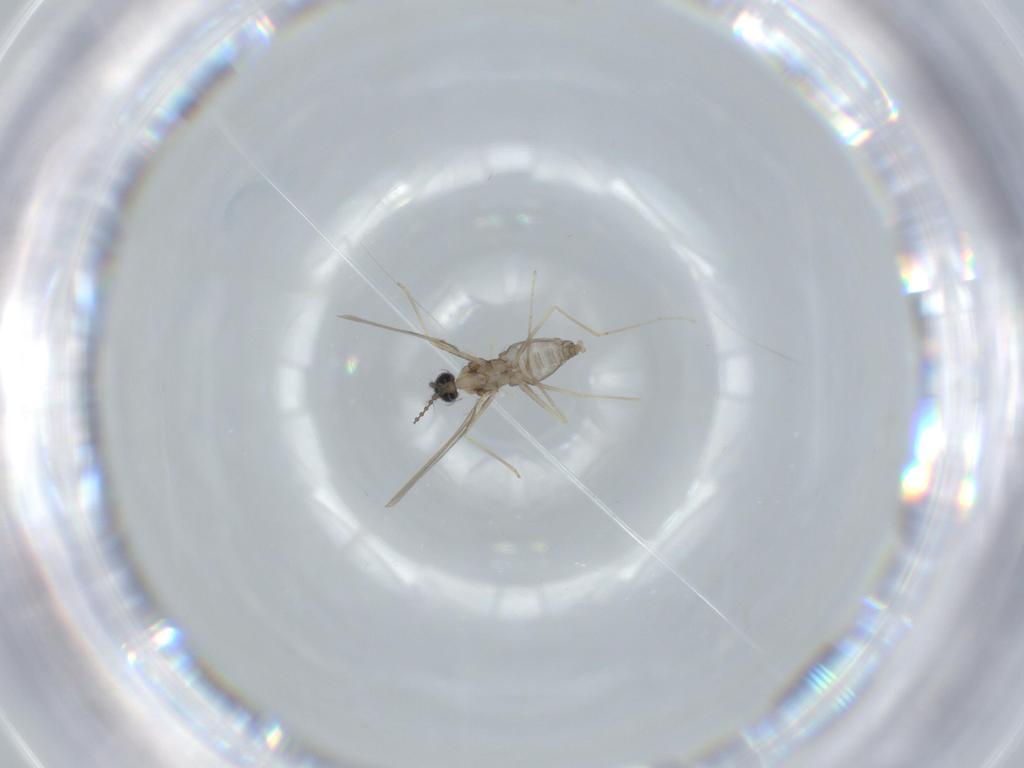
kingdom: Animalia
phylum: Arthropoda
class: Insecta
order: Diptera
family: Cecidomyiidae
